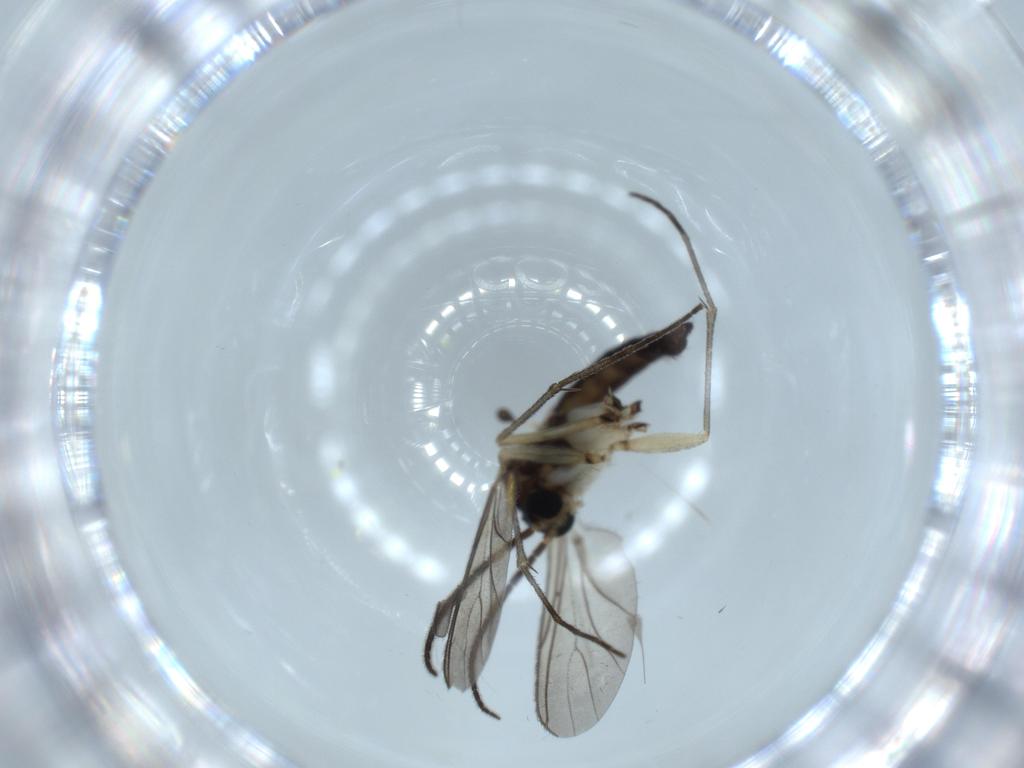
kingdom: Animalia
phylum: Arthropoda
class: Insecta
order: Diptera
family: Sciaridae
